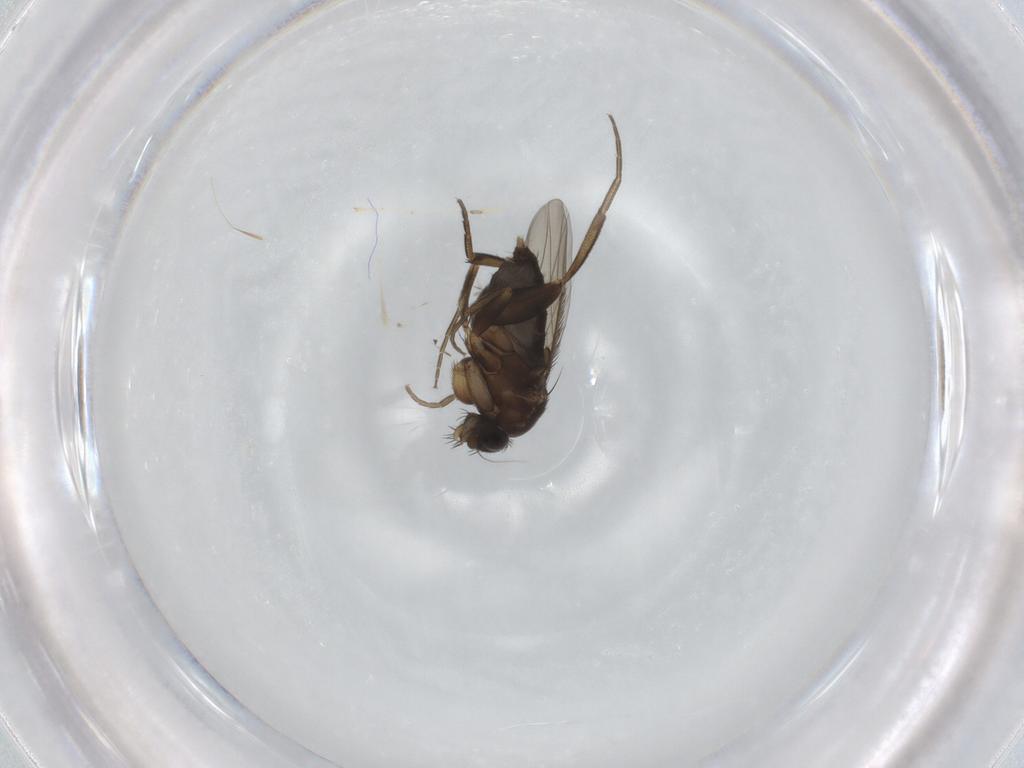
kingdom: Animalia
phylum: Arthropoda
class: Insecta
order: Diptera
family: Phoridae
